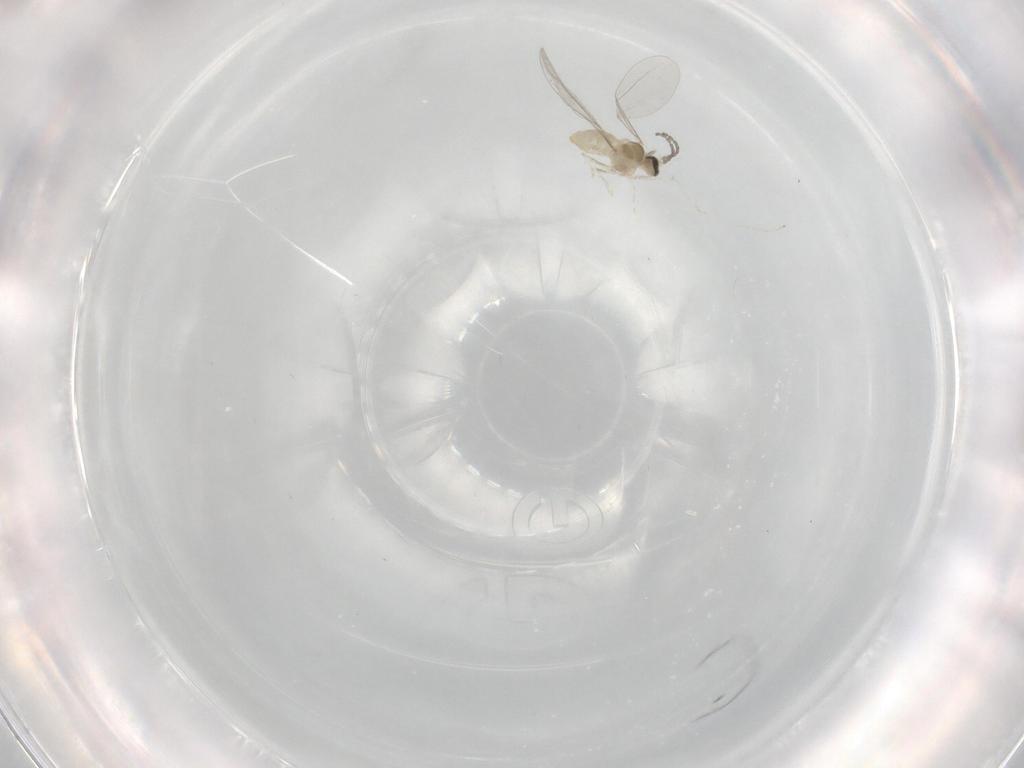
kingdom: Animalia
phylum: Arthropoda
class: Insecta
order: Diptera
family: Cecidomyiidae
